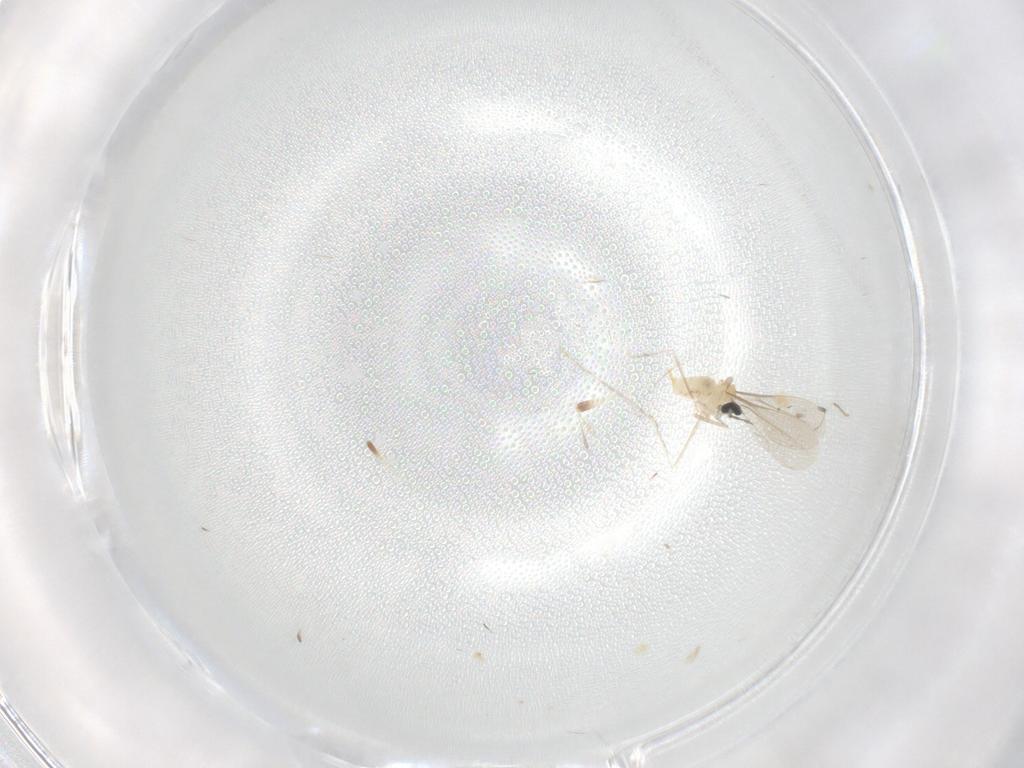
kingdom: Animalia
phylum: Arthropoda
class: Insecta
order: Diptera
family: Cecidomyiidae
